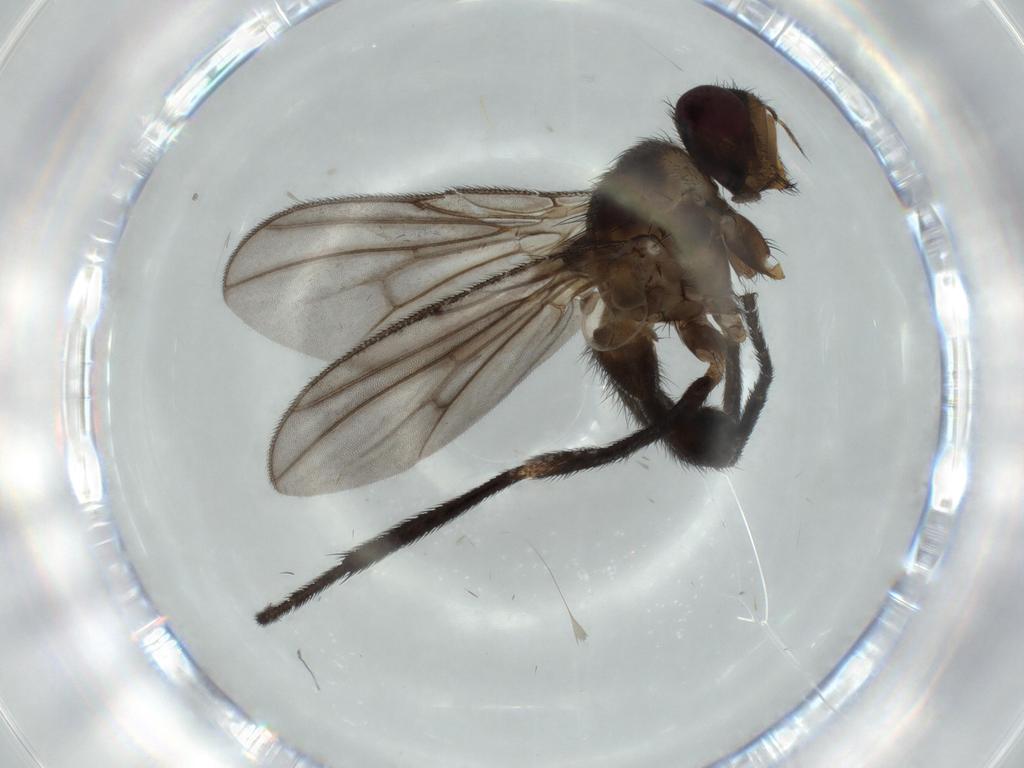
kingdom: Animalia
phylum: Arthropoda
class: Insecta
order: Diptera
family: Calliphoridae
